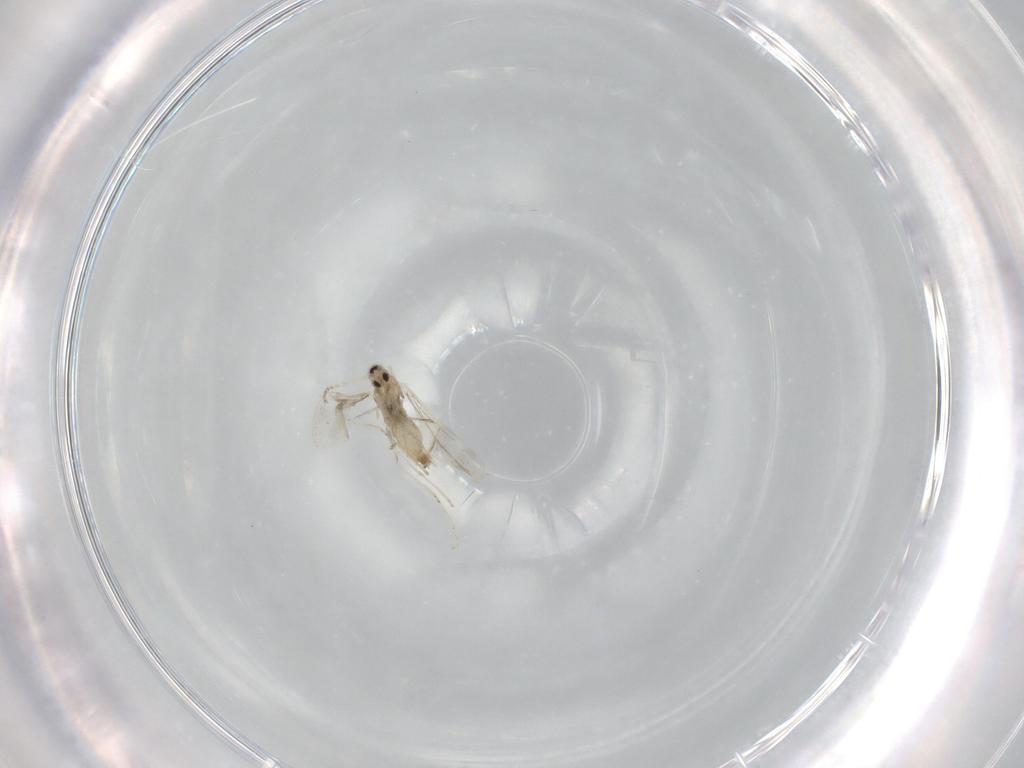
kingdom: Animalia
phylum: Arthropoda
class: Insecta
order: Diptera
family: Cecidomyiidae
